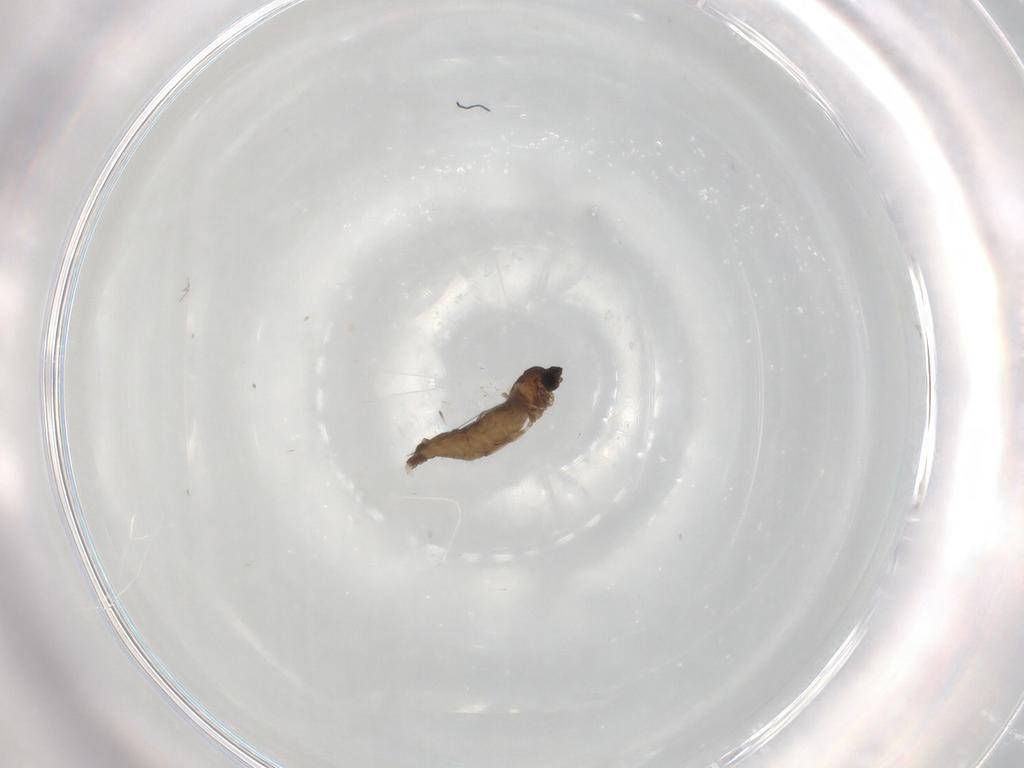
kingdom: Animalia
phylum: Arthropoda
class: Insecta
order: Diptera
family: Cecidomyiidae
